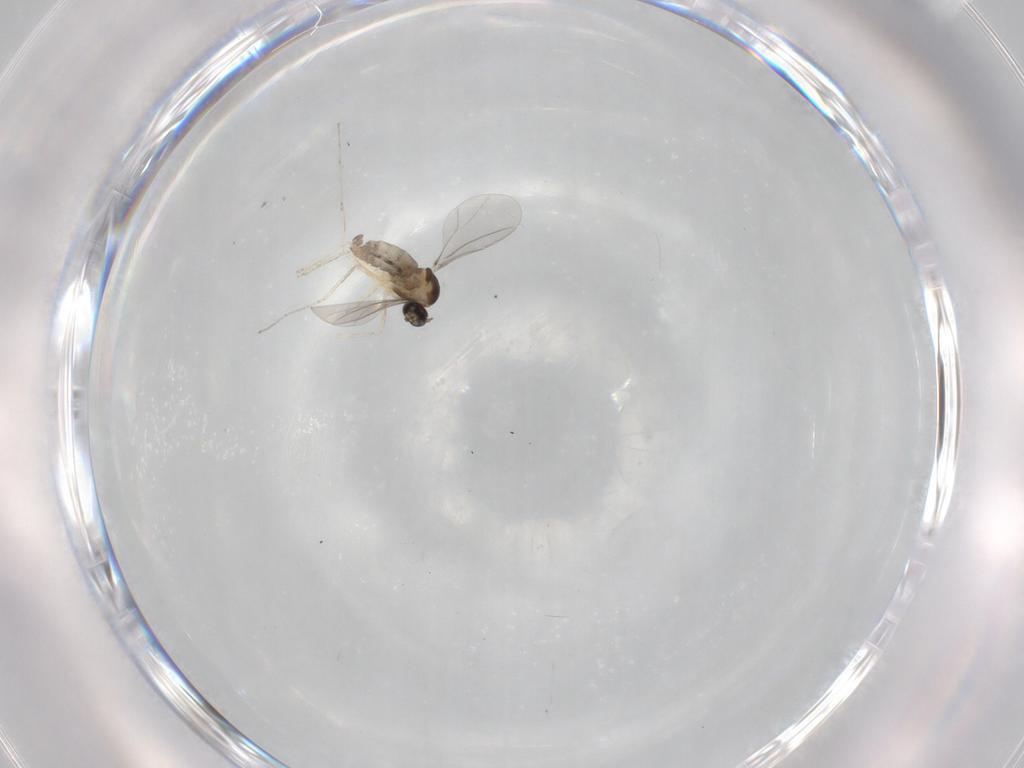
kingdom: Animalia
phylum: Arthropoda
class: Insecta
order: Diptera
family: Cecidomyiidae
